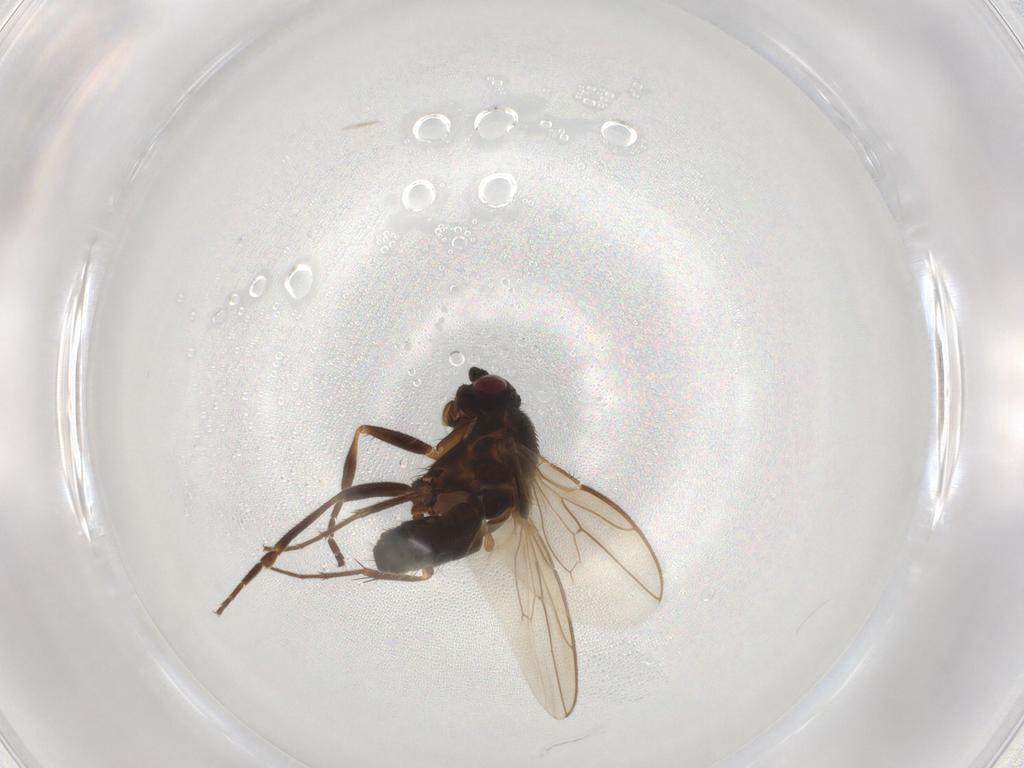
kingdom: Animalia
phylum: Arthropoda
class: Insecta
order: Diptera
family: Sphaeroceridae
